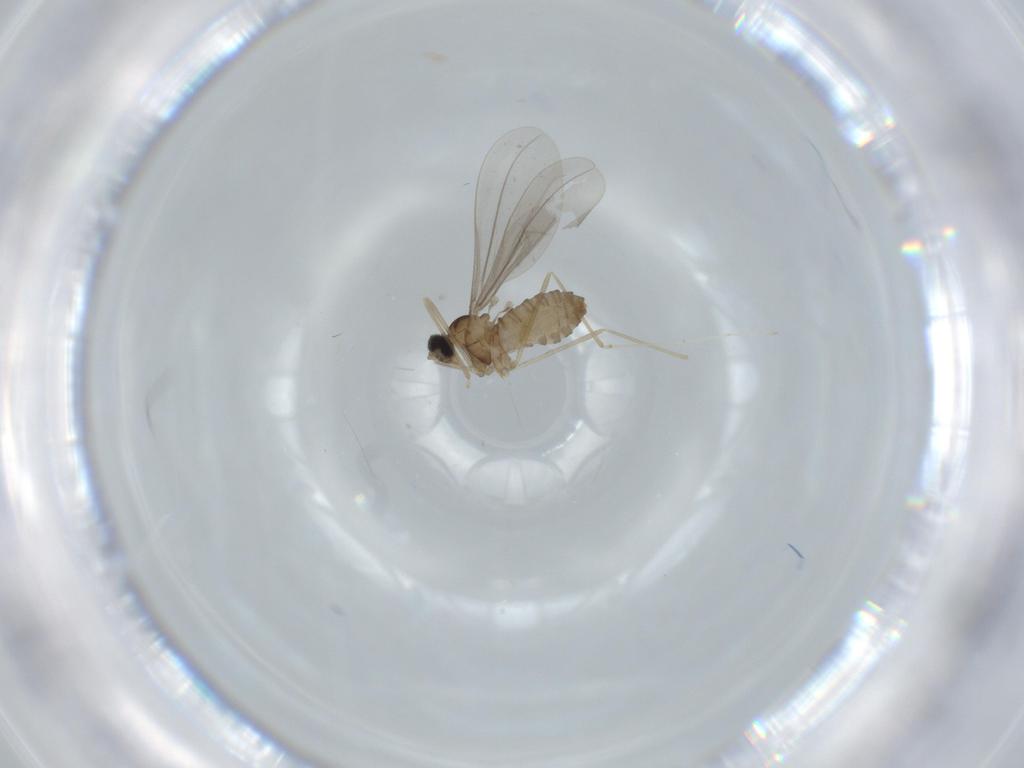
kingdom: Animalia
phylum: Arthropoda
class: Insecta
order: Diptera
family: Cecidomyiidae
